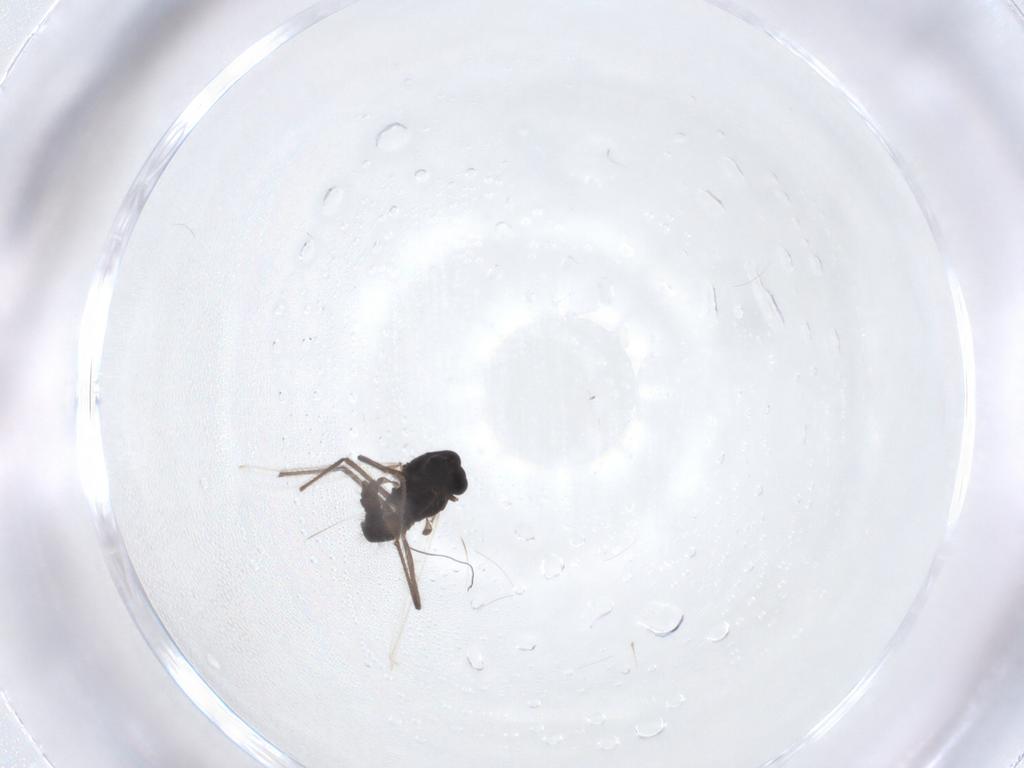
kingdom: Animalia
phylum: Arthropoda
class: Insecta
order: Diptera
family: Chironomidae
